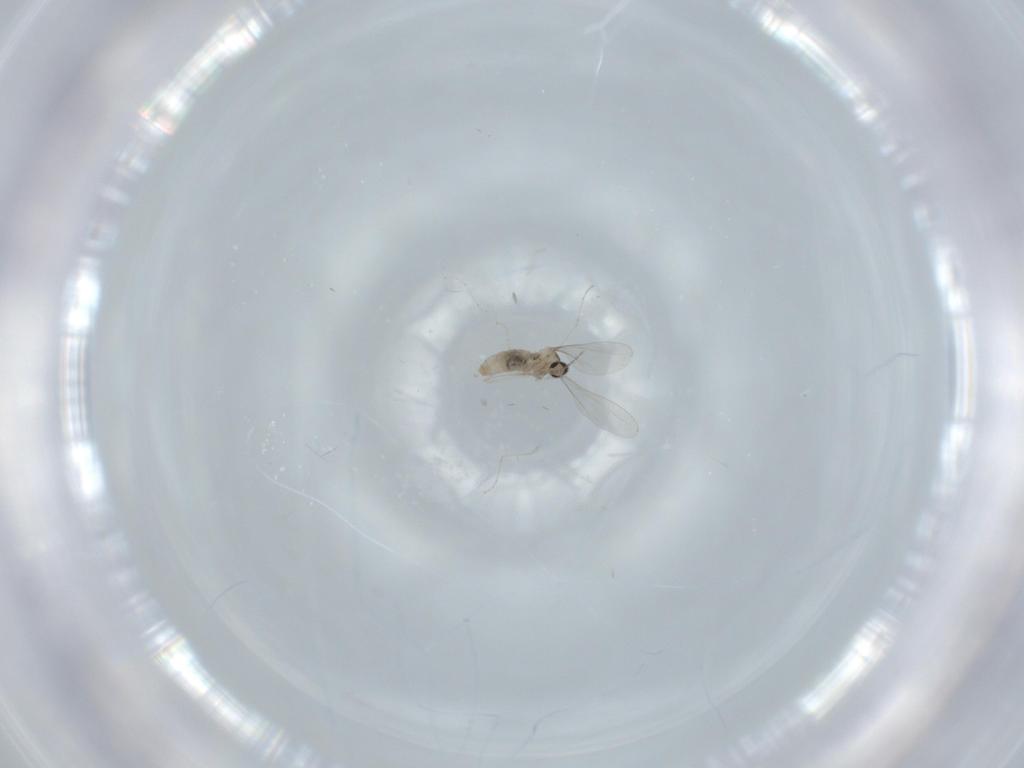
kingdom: Animalia
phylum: Arthropoda
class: Insecta
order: Diptera
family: Cecidomyiidae
